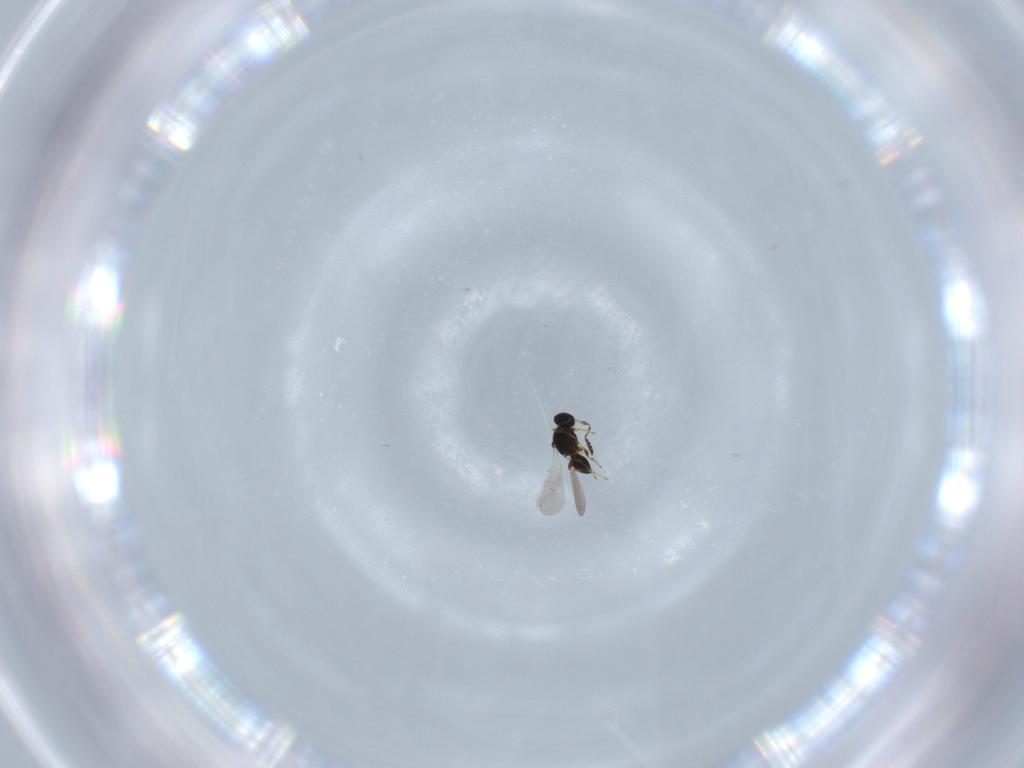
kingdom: Animalia
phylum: Arthropoda
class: Insecta
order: Hymenoptera
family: Platygastridae
